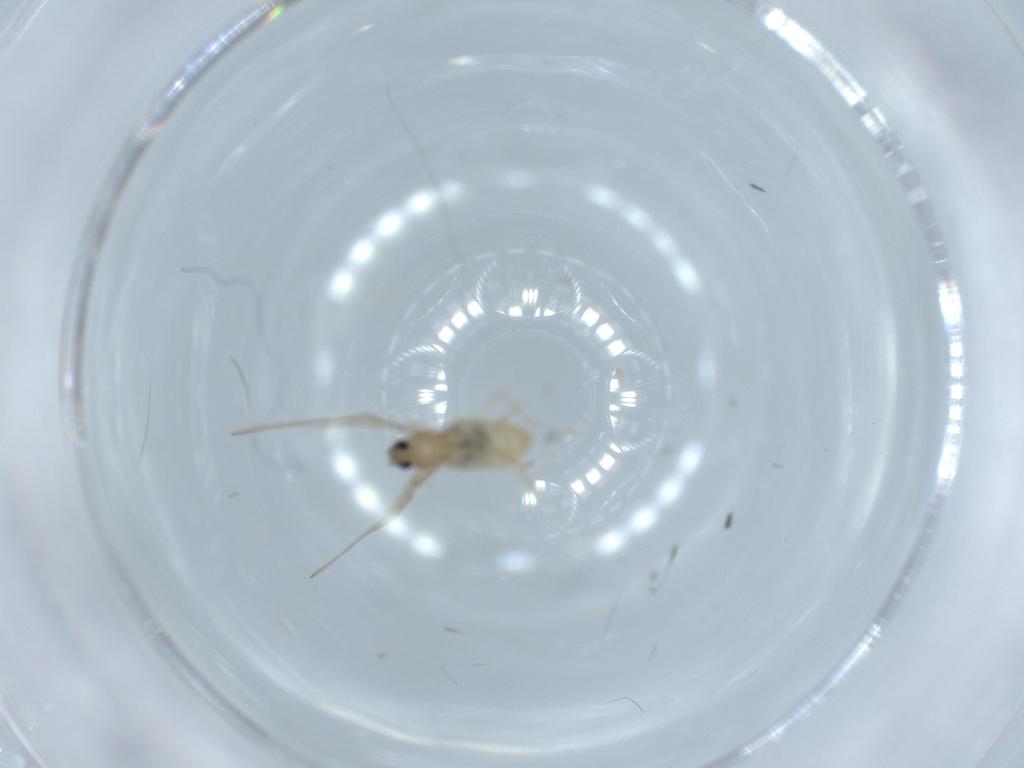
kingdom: Animalia
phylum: Arthropoda
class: Insecta
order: Diptera
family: Cecidomyiidae
